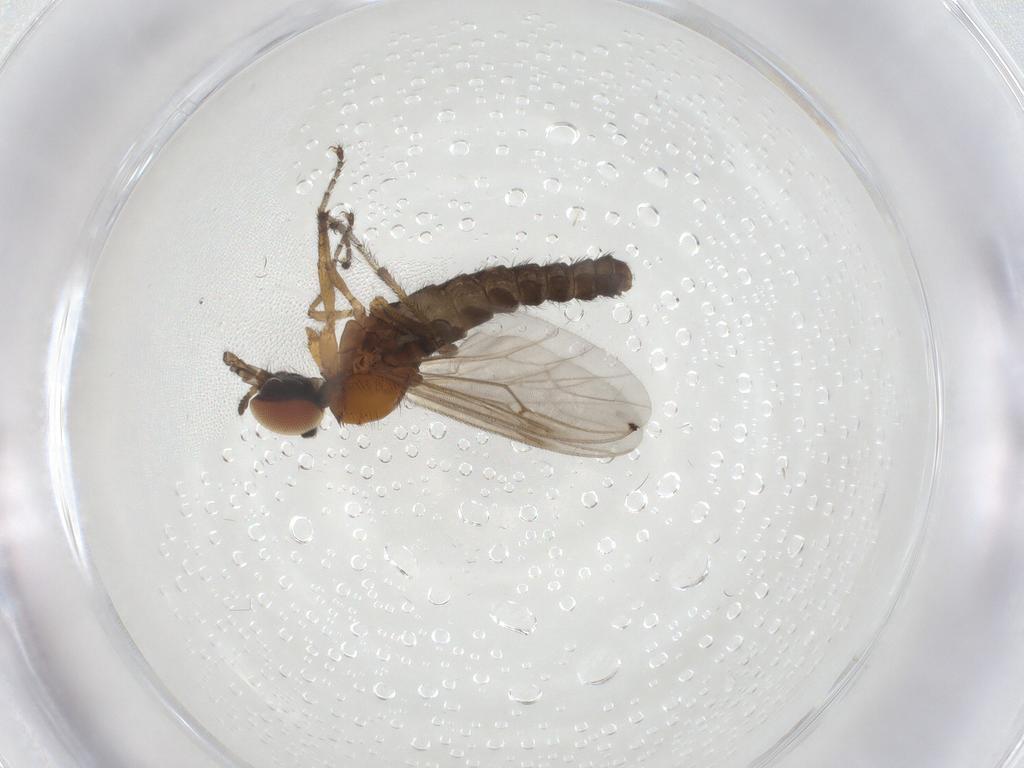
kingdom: Animalia
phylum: Arthropoda
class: Insecta
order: Diptera
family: Bibionidae
